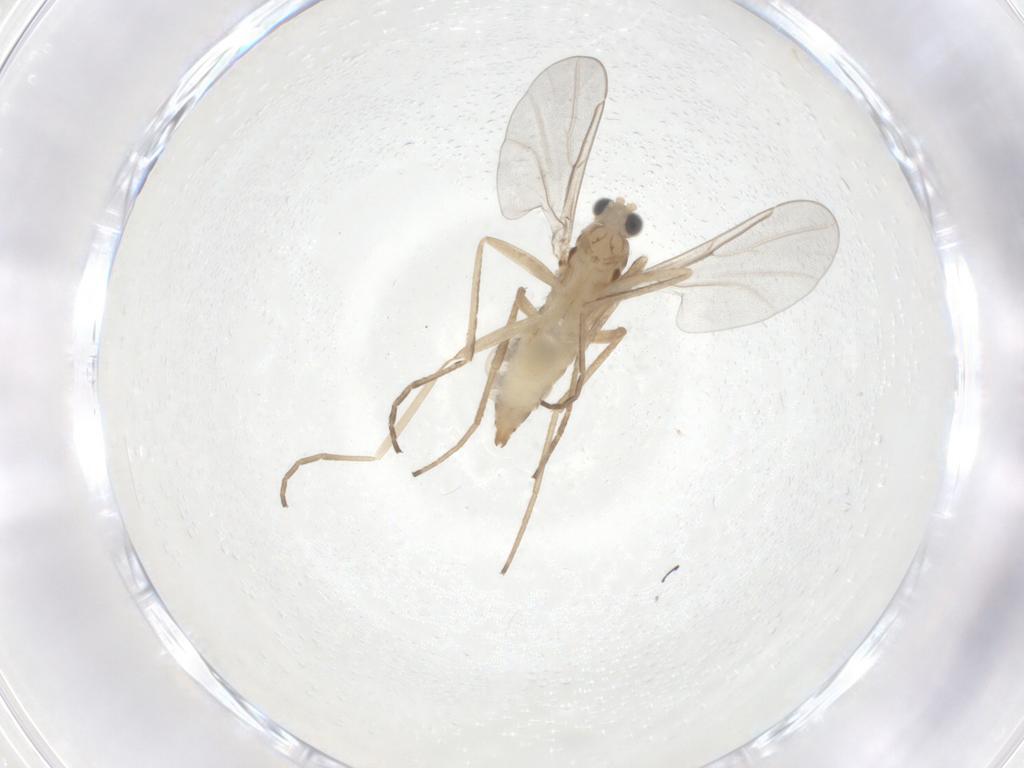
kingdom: Animalia
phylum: Arthropoda
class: Insecta
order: Diptera
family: Cecidomyiidae
